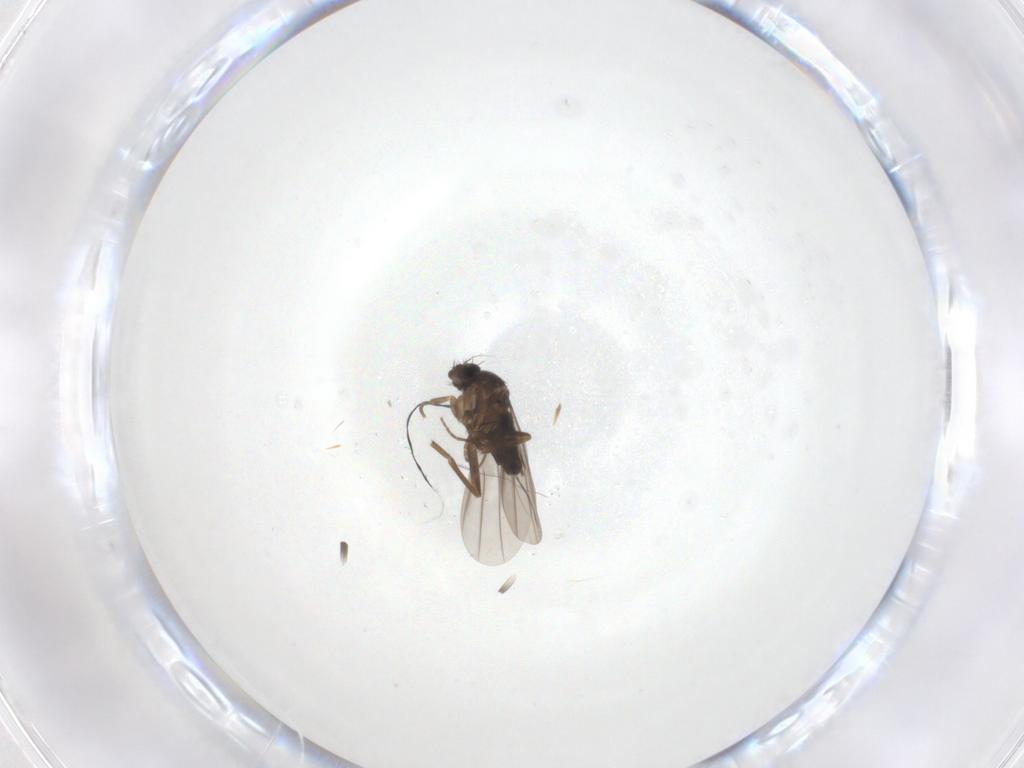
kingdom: Animalia
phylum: Arthropoda
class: Insecta
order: Diptera
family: Phoridae
